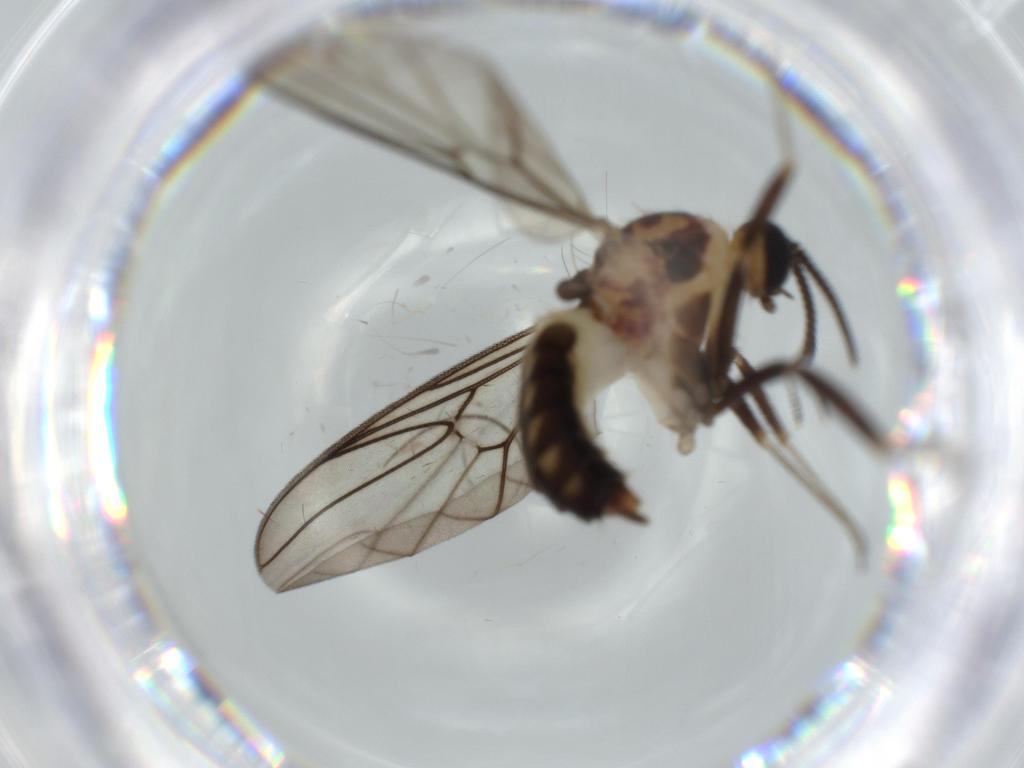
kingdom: Animalia
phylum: Arthropoda
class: Insecta
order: Diptera
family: Anisopodidae
